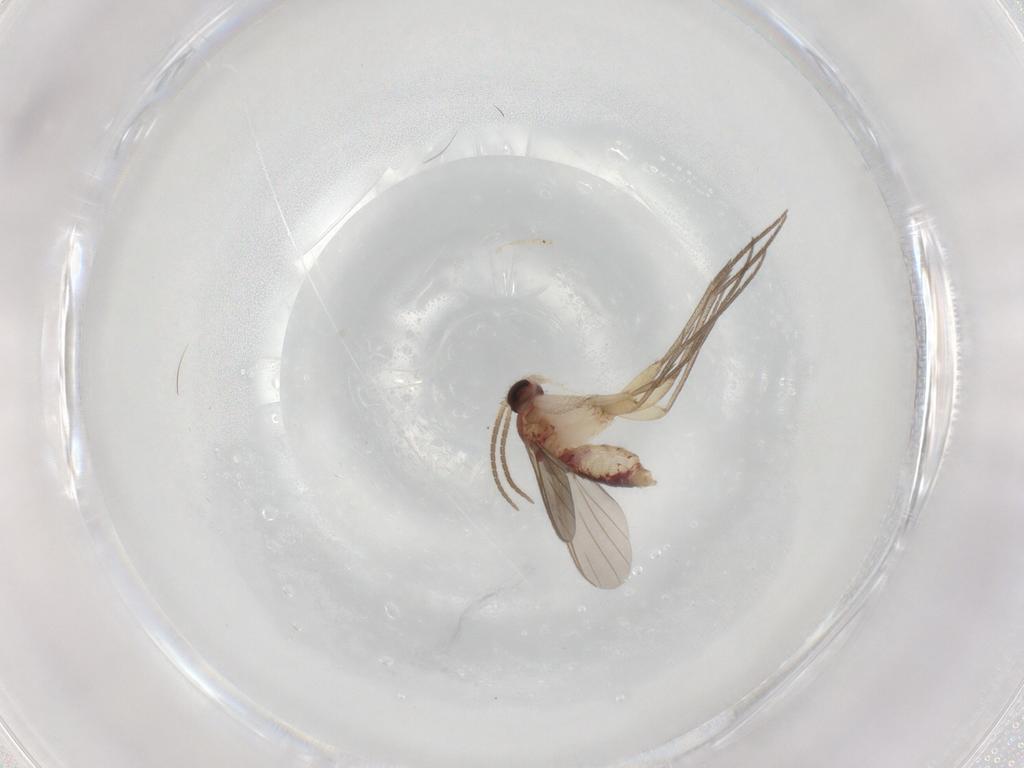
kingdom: Animalia
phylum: Arthropoda
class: Insecta
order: Diptera
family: Mycetophilidae
